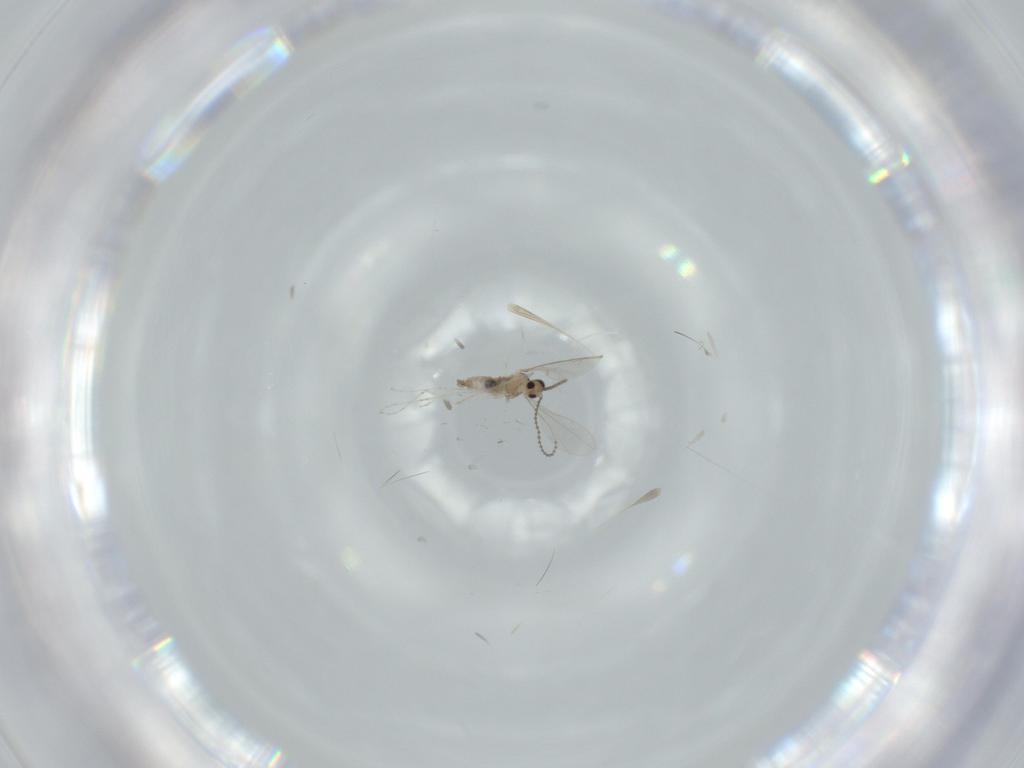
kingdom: Animalia
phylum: Arthropoda
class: Insecta
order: Diptera
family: Cecidomyiidae
